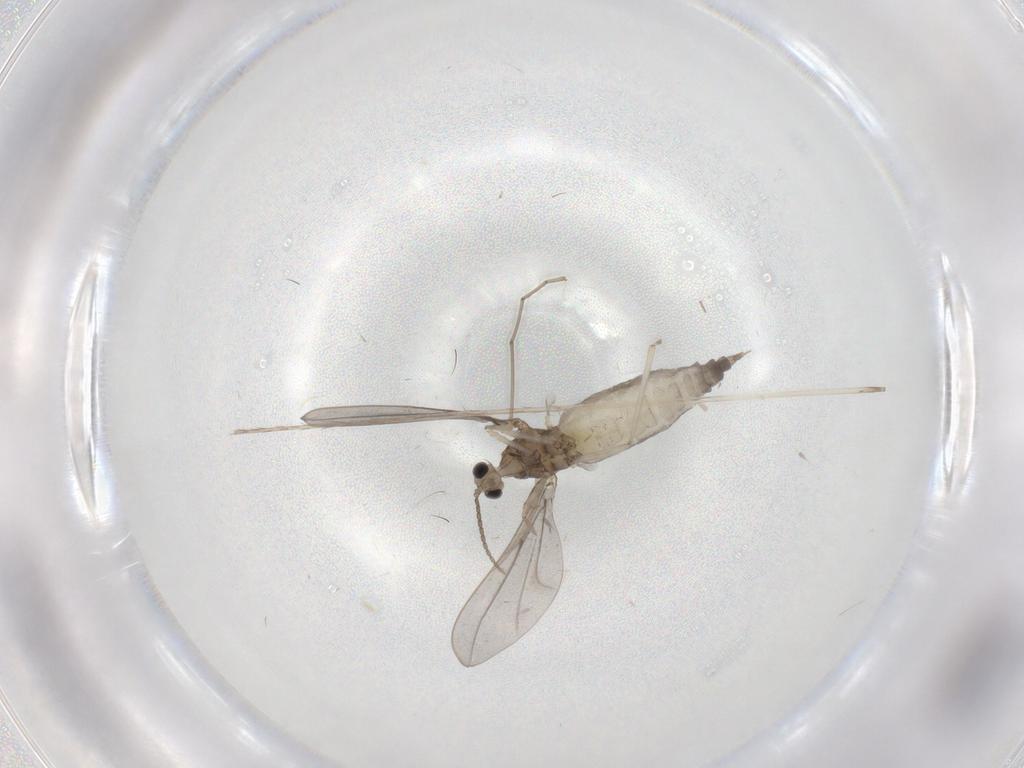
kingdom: Animalia
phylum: Arthropoda
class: Insecta
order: Diptera
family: Cecidomyiidae
